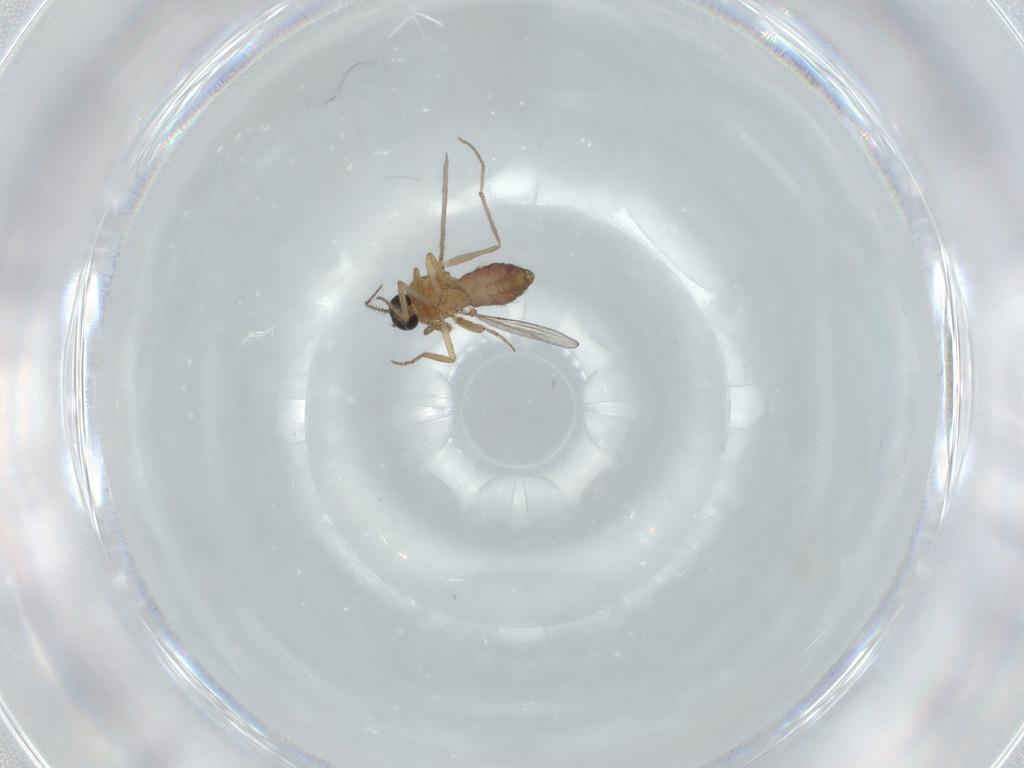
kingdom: Animalia
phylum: Arthropoda
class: Insecta
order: Diptera
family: Ceratopogonidae
